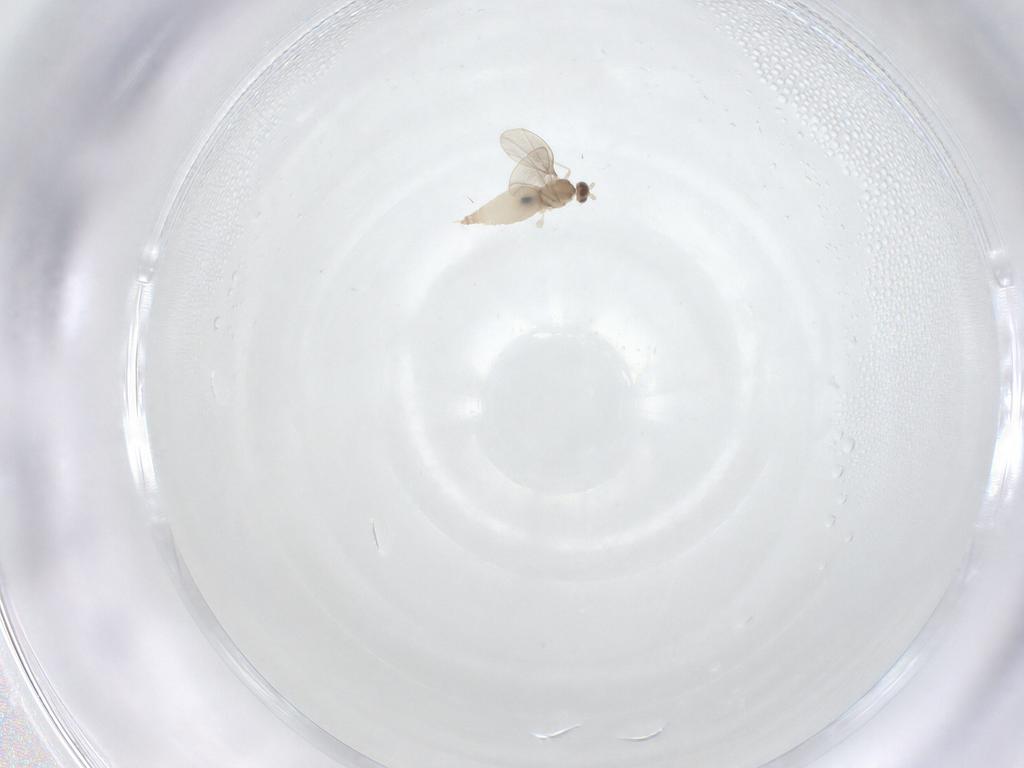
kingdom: Animalia
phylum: Arthropoda
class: Insecta
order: Diptera
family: Cecidomyiidae
